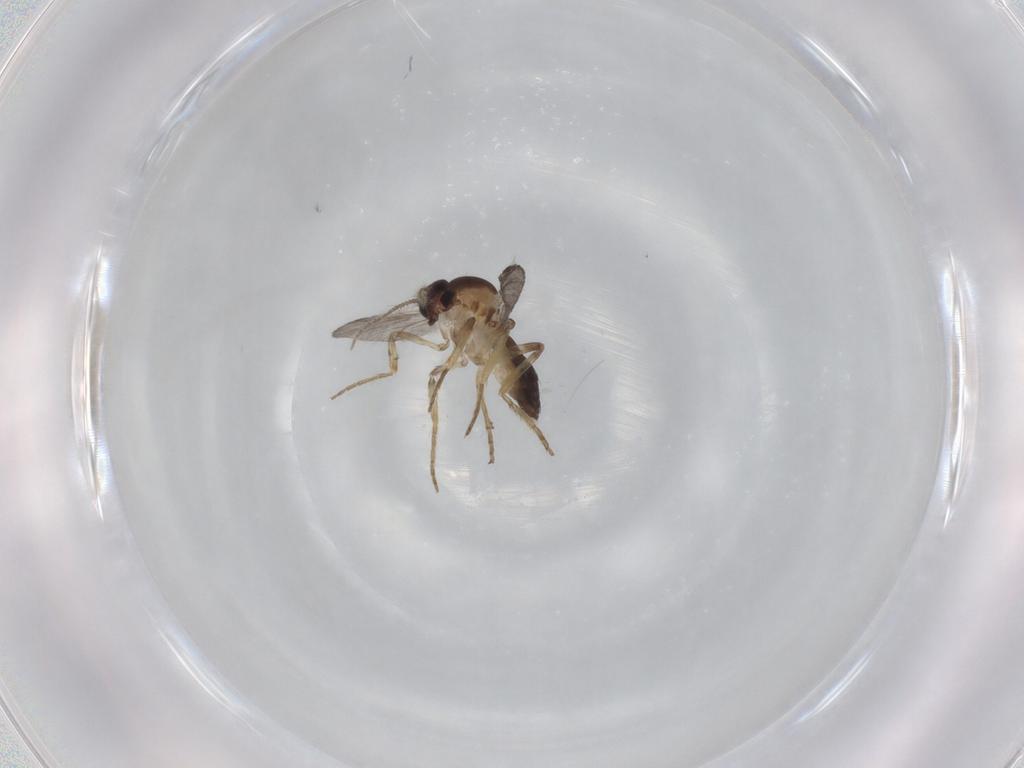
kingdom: Animalia
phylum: Arthropoda
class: Insecta
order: Diptera
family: Ceratopogonidae
